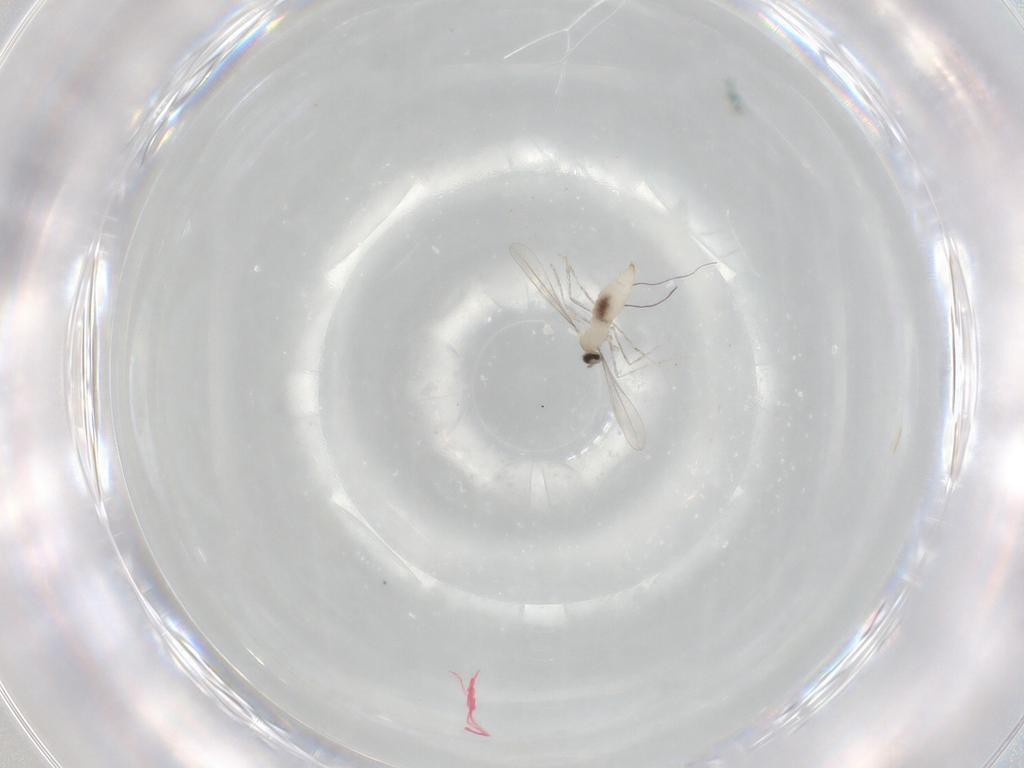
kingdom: Animalia
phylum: Arthropoda
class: Insecta
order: Diptera
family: Cecidomyiidae
